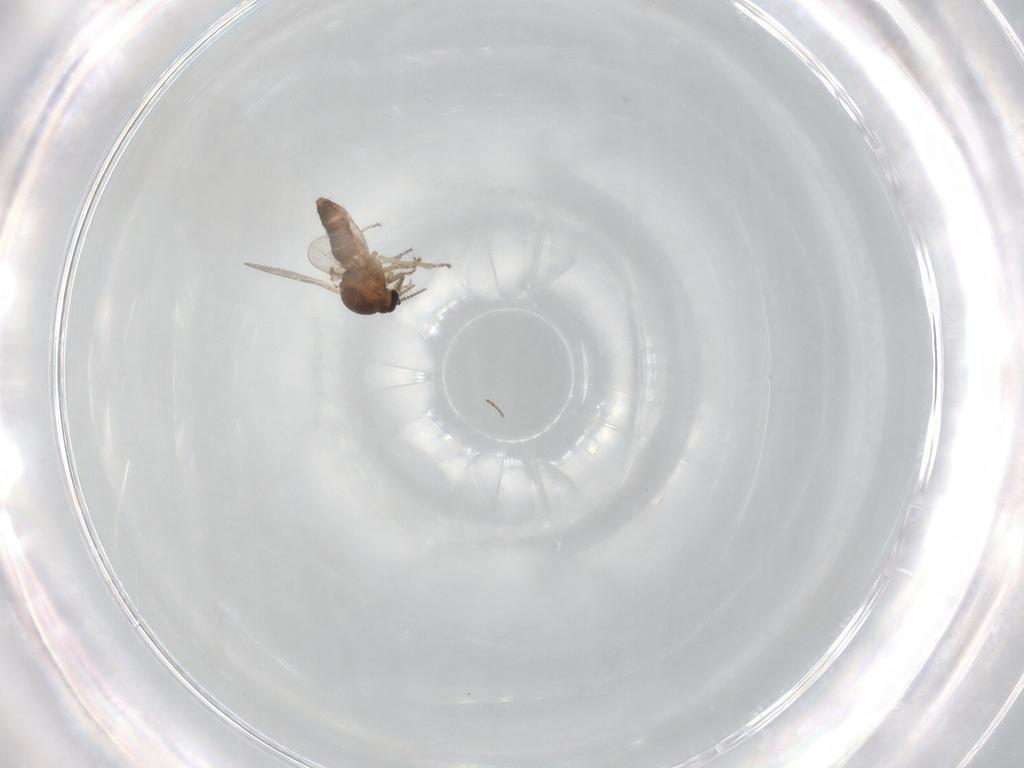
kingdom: Animalia
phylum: Arthropoda
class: Insecta
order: Diptera
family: Chironomidae
